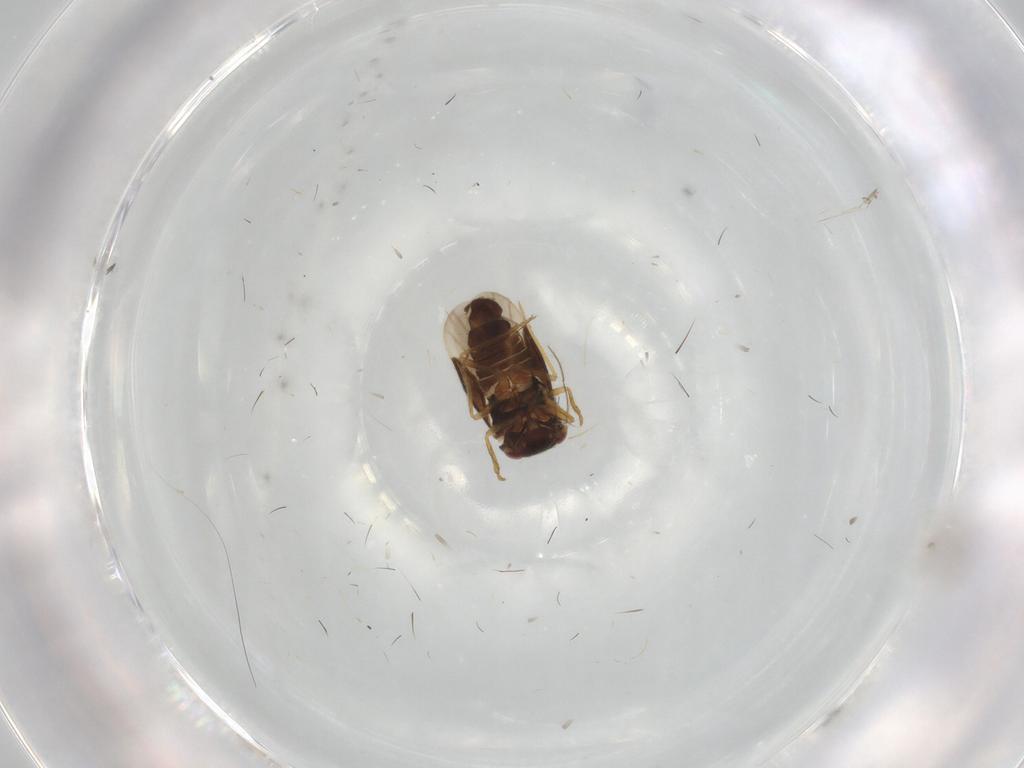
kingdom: Animalia
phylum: Arthropoda
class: Insecta
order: Hemiptera
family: Schizopteridae
